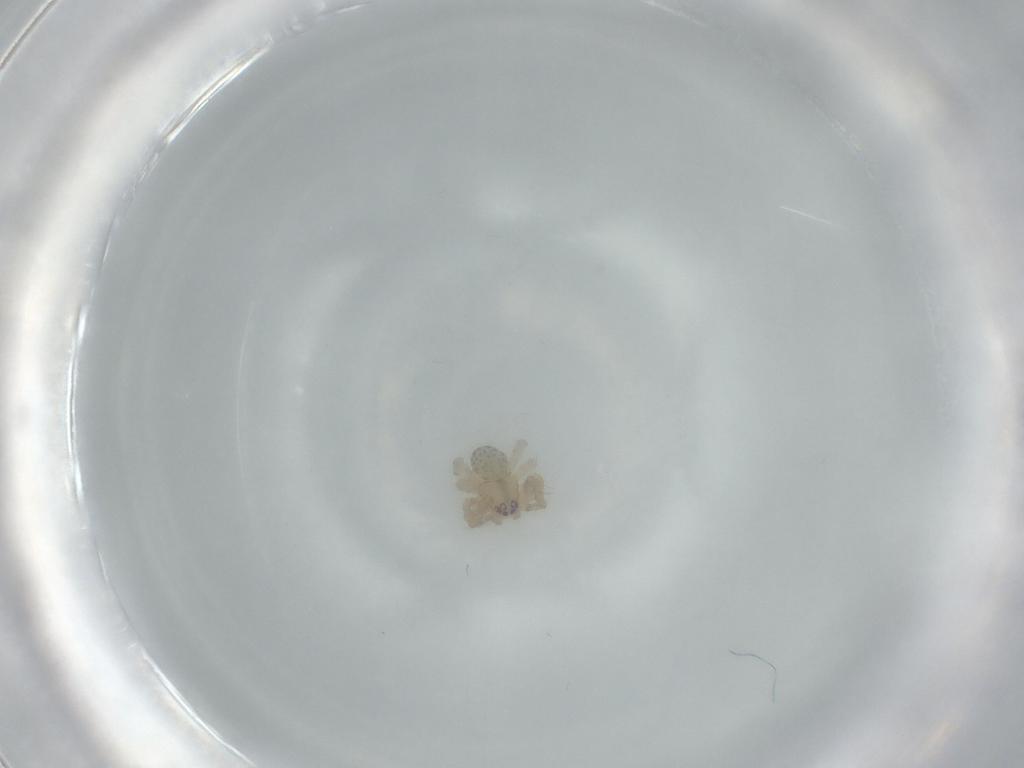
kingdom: Animalia
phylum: Arthropoda
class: Arachnida
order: Araneae
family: Theridiidae
